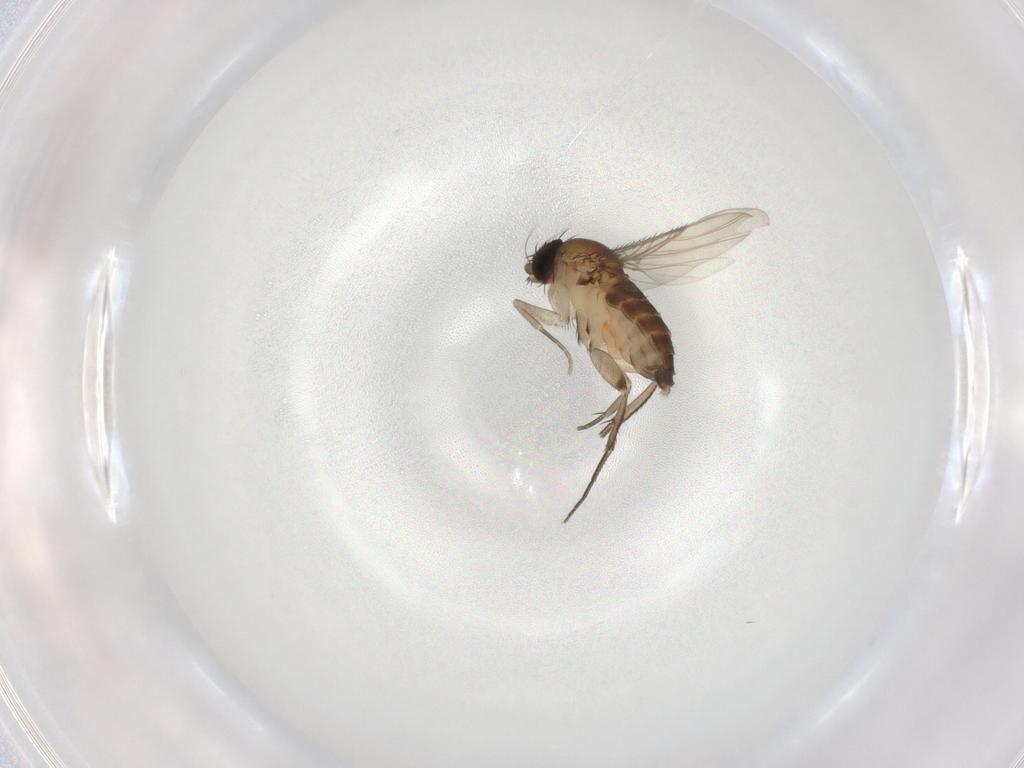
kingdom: Animalia
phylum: Arthropoda
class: Insecta
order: Diptera
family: Phoridae
